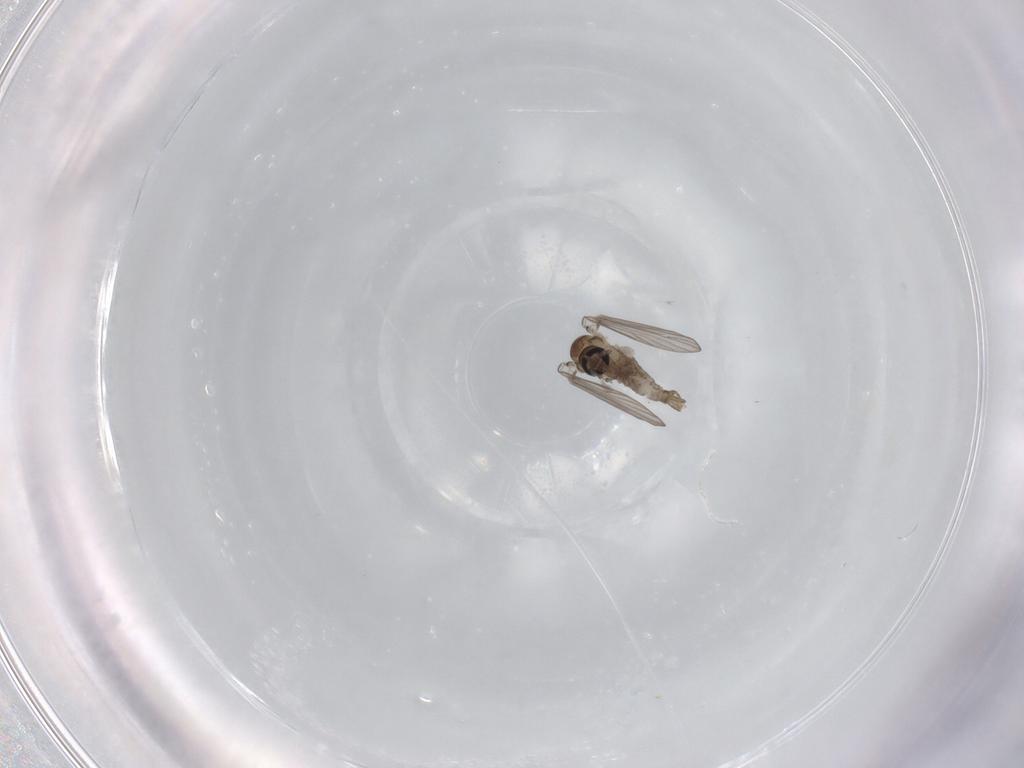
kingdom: Animalia
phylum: Arthropoda
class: Insecta
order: Diptera
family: Psychodidae
